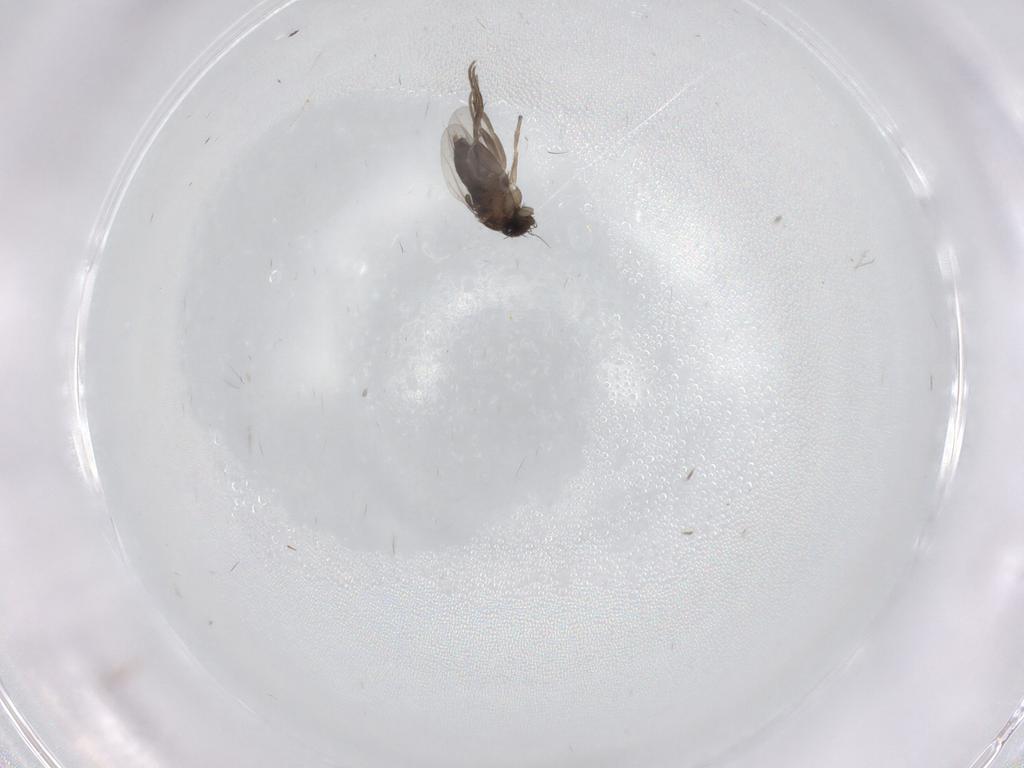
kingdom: Animalia
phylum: Arthropoda
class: Insecta
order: Diptera
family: Phoridae
